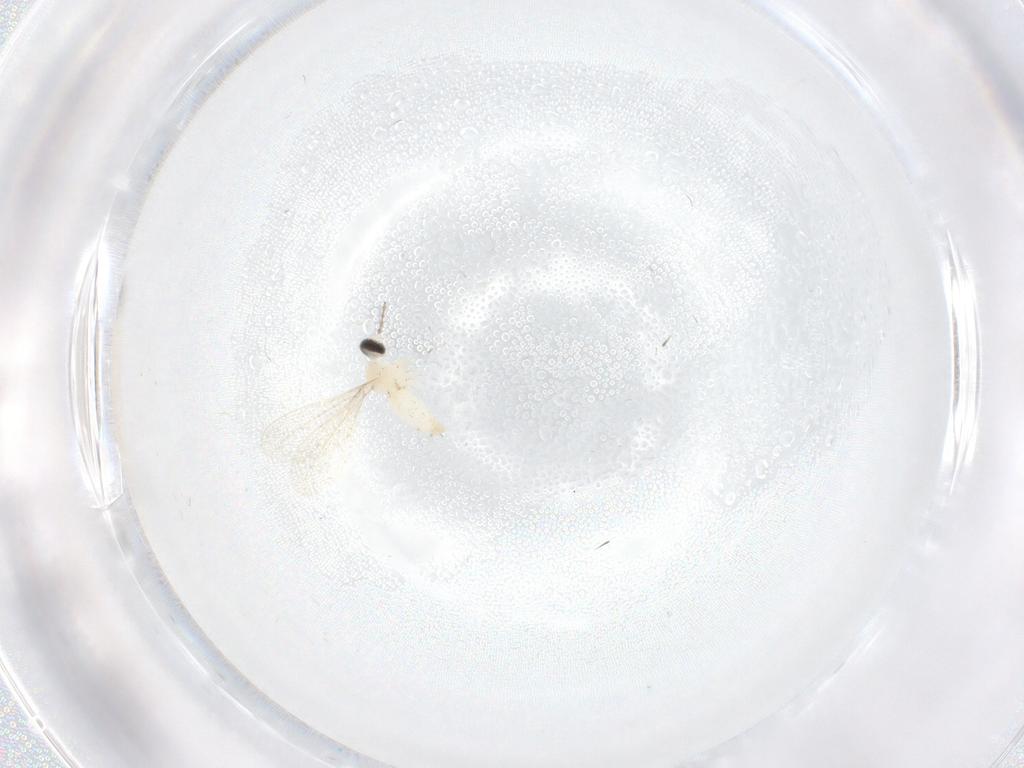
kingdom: Animalia
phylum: Arthropoda
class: Insecta
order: Diptera
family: Cecidomyiidae
